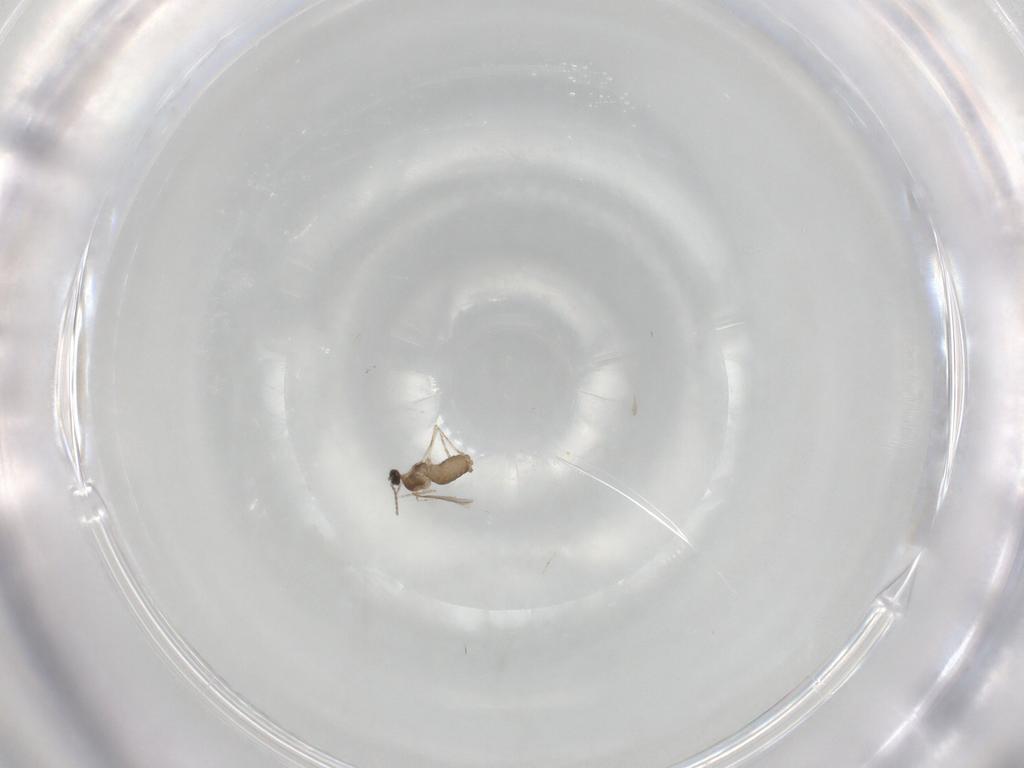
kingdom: Animalia
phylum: Arthropoda
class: Insecta
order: Diptera
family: Cecidomyiidae
